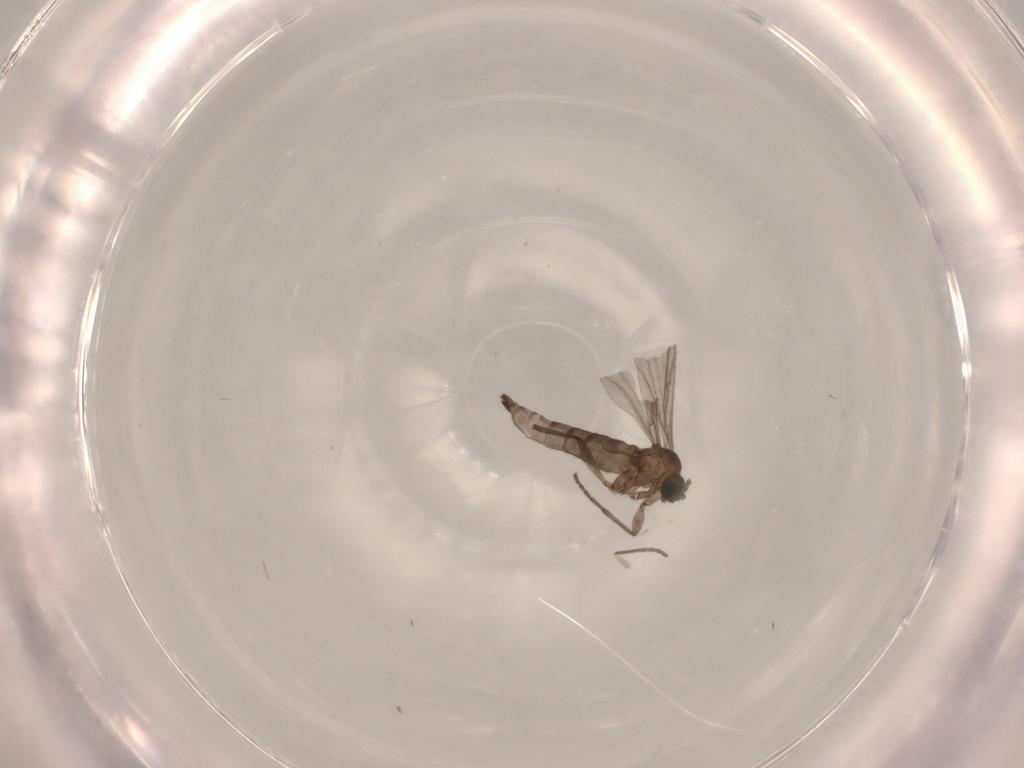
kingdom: Animalia
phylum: Arthropoda
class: Insecta
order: Diptera
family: Sciaridae
